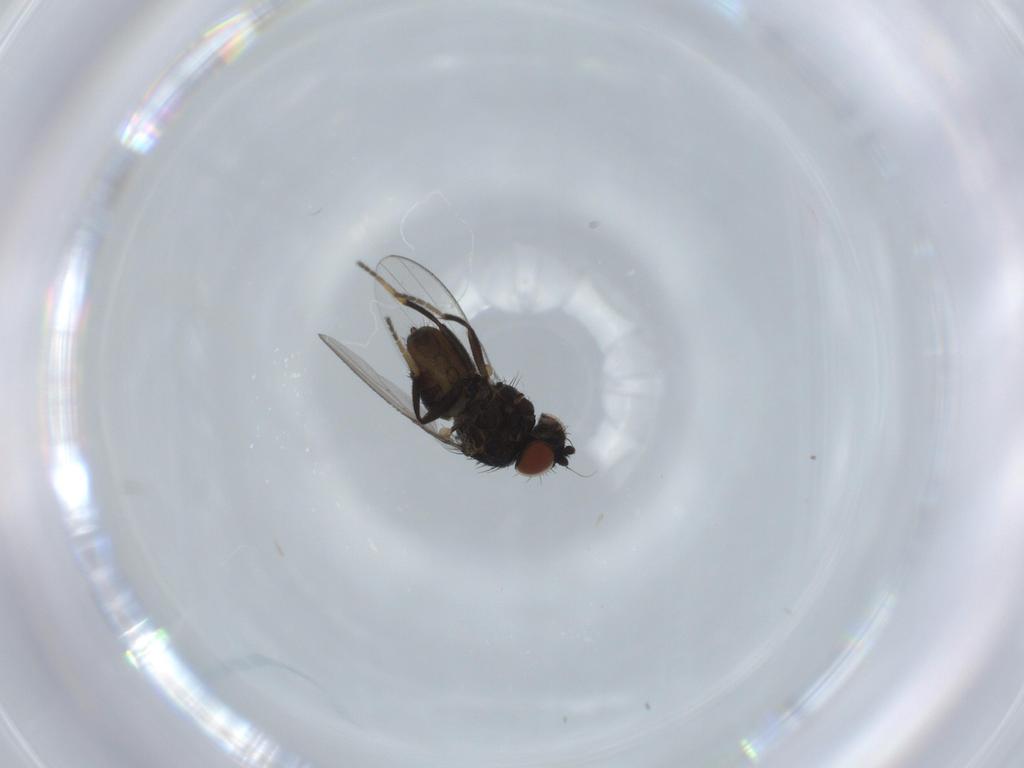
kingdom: Animalia
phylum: Arthropoda
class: Insecta
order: Diptera
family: Milichiidae
